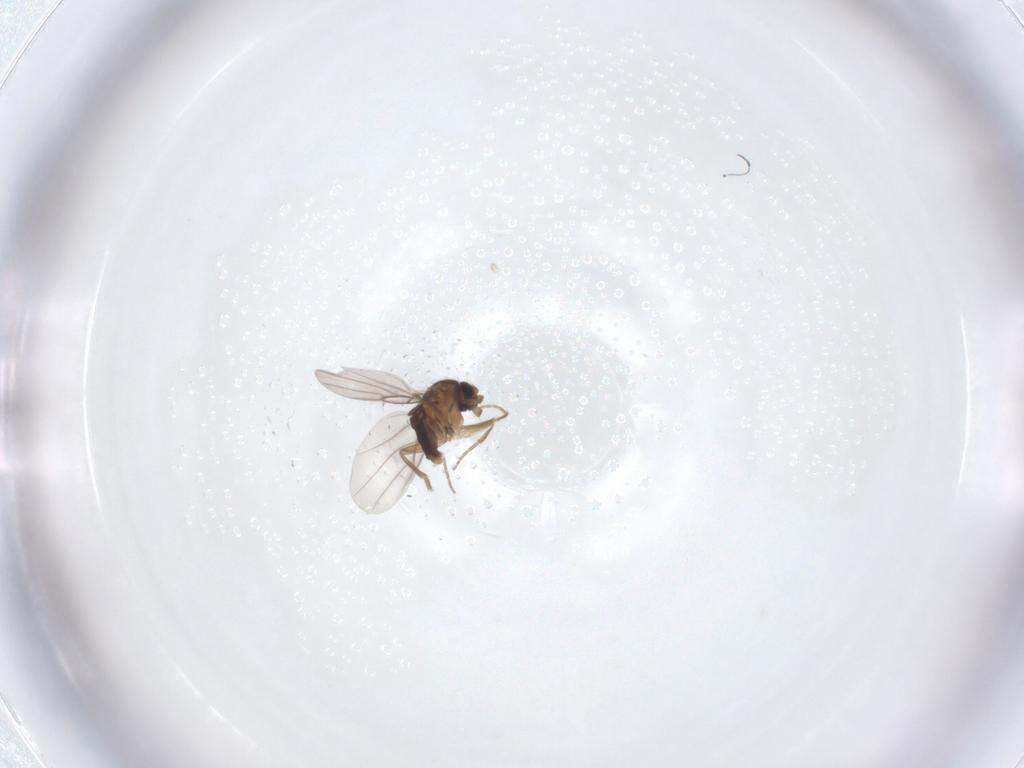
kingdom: Animalia
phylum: Arthropoda
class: Insecta
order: Diptera
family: Phoridae
